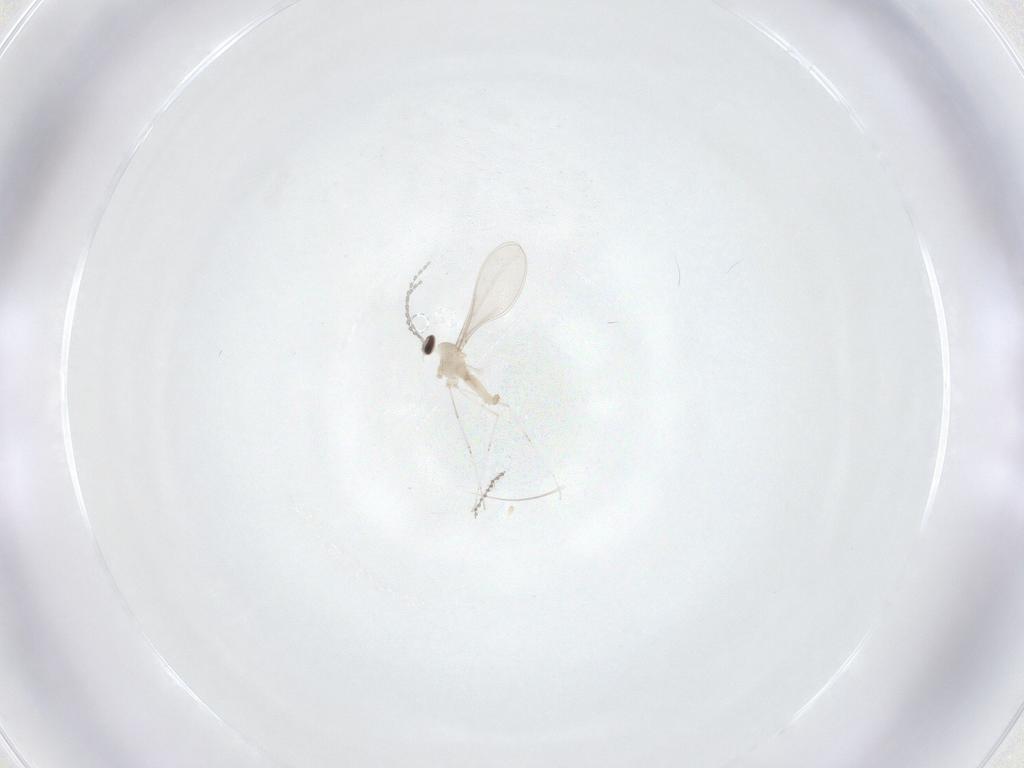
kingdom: Animalia
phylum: Arthropoda
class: Insecta
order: Diptera
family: Cecidomyiidae
